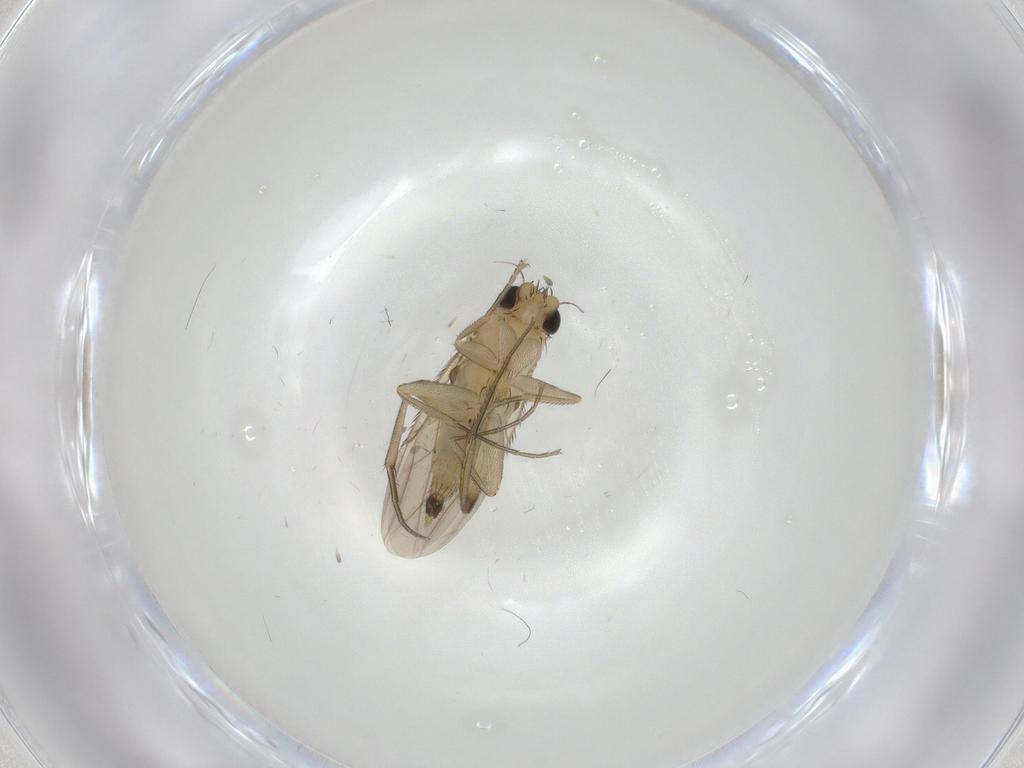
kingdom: Animalia
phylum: Arthropoda
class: Insecta
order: Diptera
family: Phoridae
